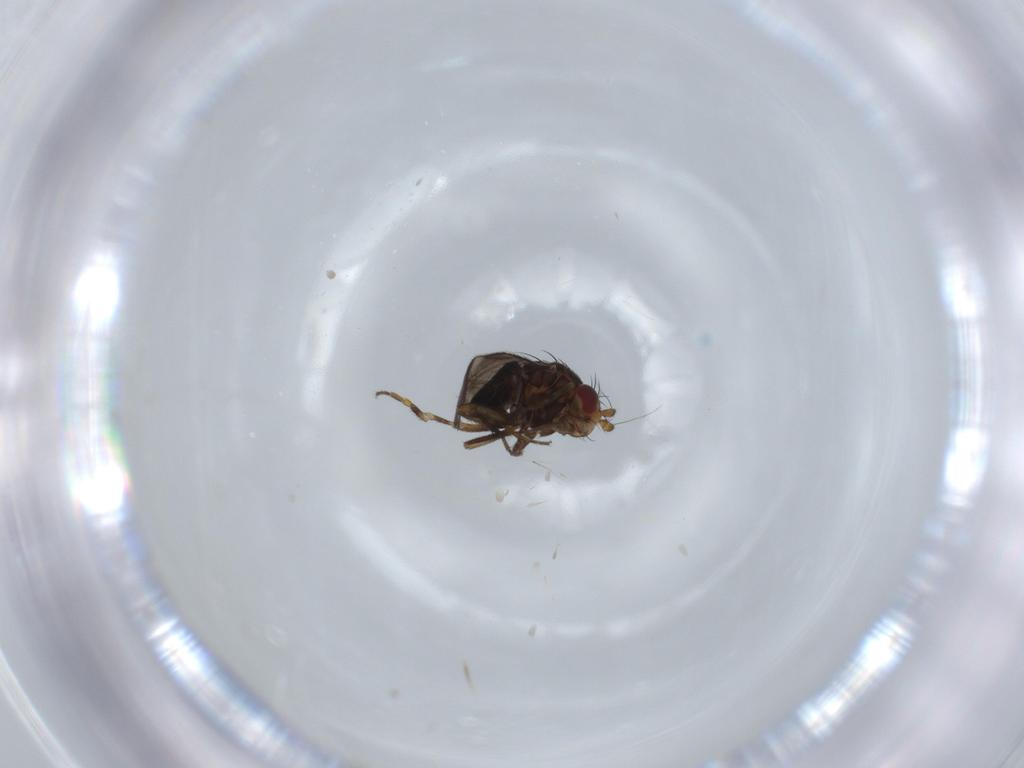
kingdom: Animalia
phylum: Arthropoda
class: Insecta
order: Diptera
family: Sphaeroceridae
